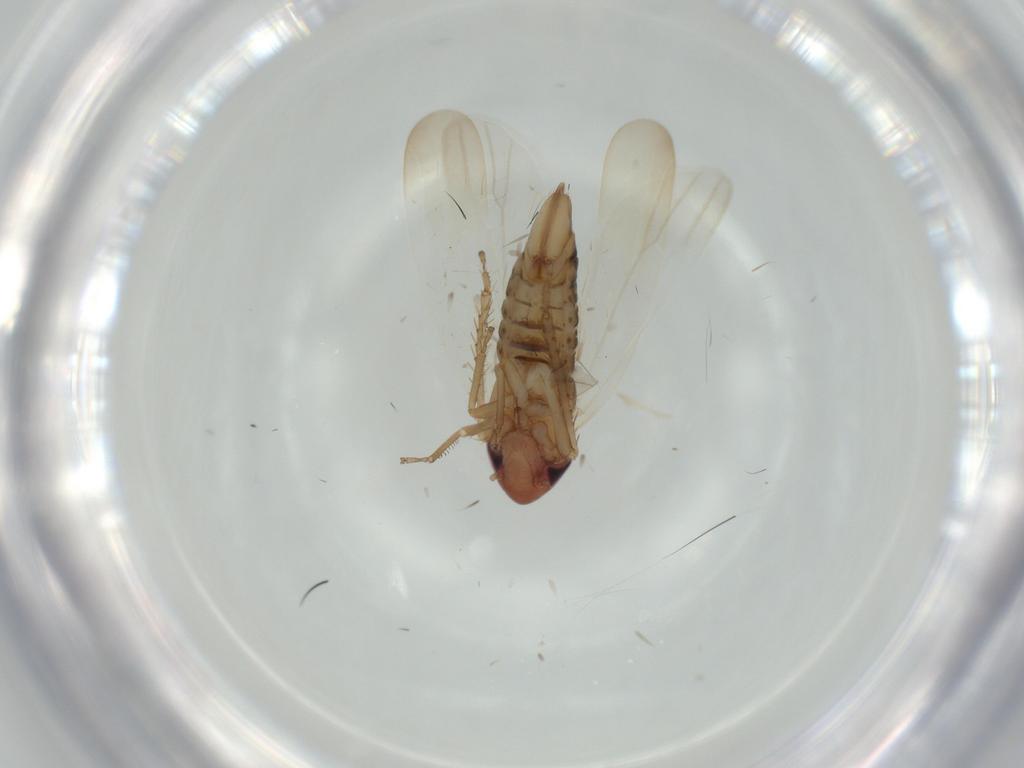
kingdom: Animalia
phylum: Arthropoda
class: Insecta
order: Hemiptera
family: Cicadellidae
